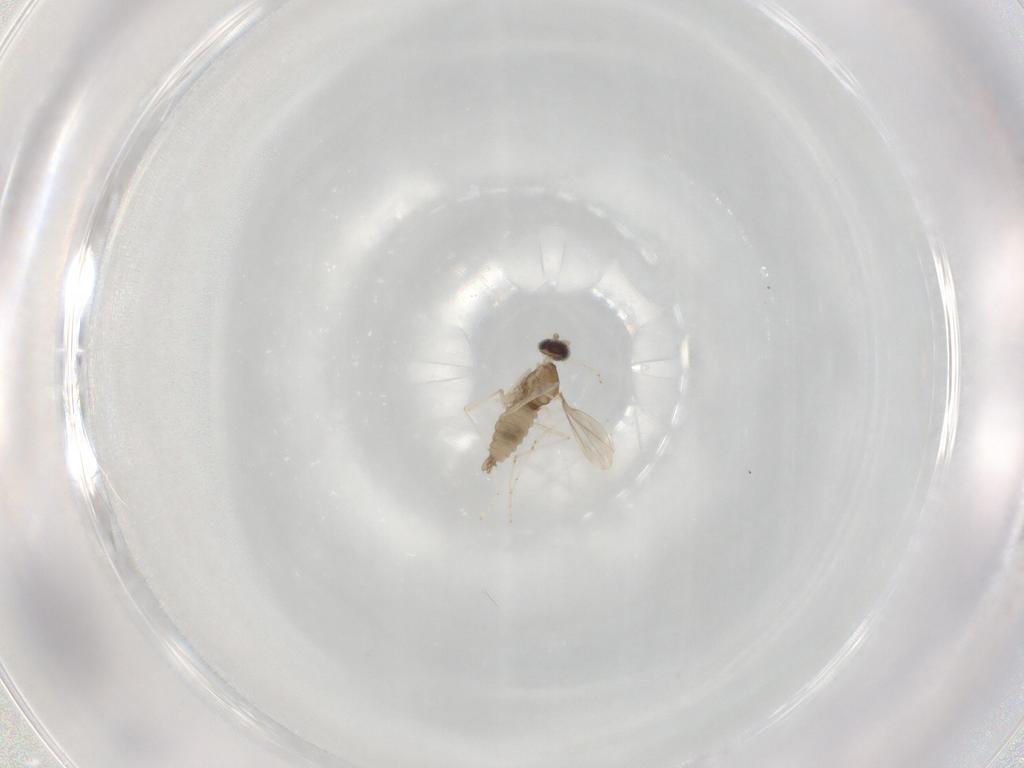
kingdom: Animalia
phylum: Arthropoda
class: Insecta
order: Diptera
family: Cecidomyiidae
